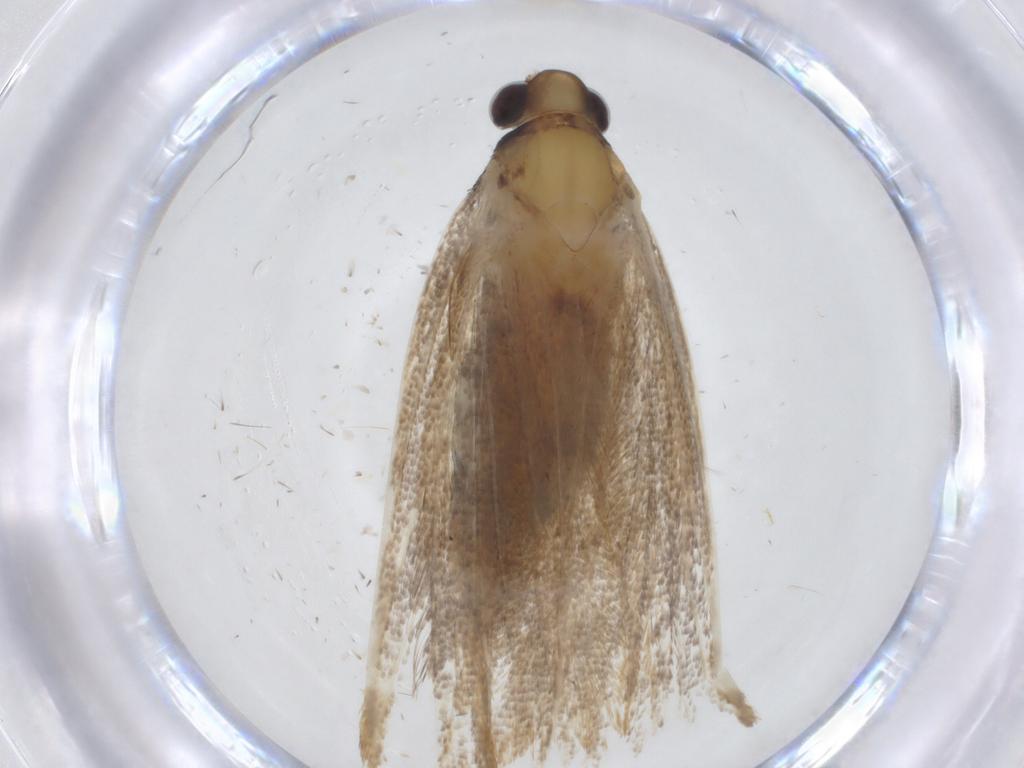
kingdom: Animalia
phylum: Arthropoda
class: Insecta
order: Lepidoptera
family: Lecithoceridae
